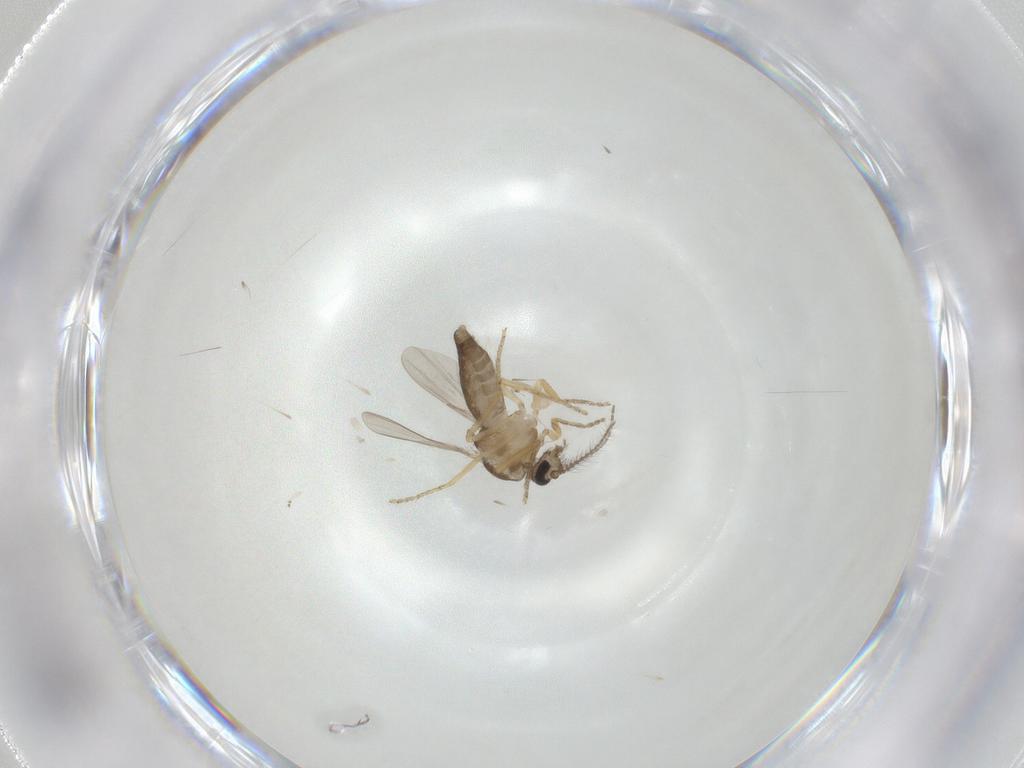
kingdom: Animalia
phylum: Arthropoda
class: Insecta
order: Diptera
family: Ceratopogonidae
